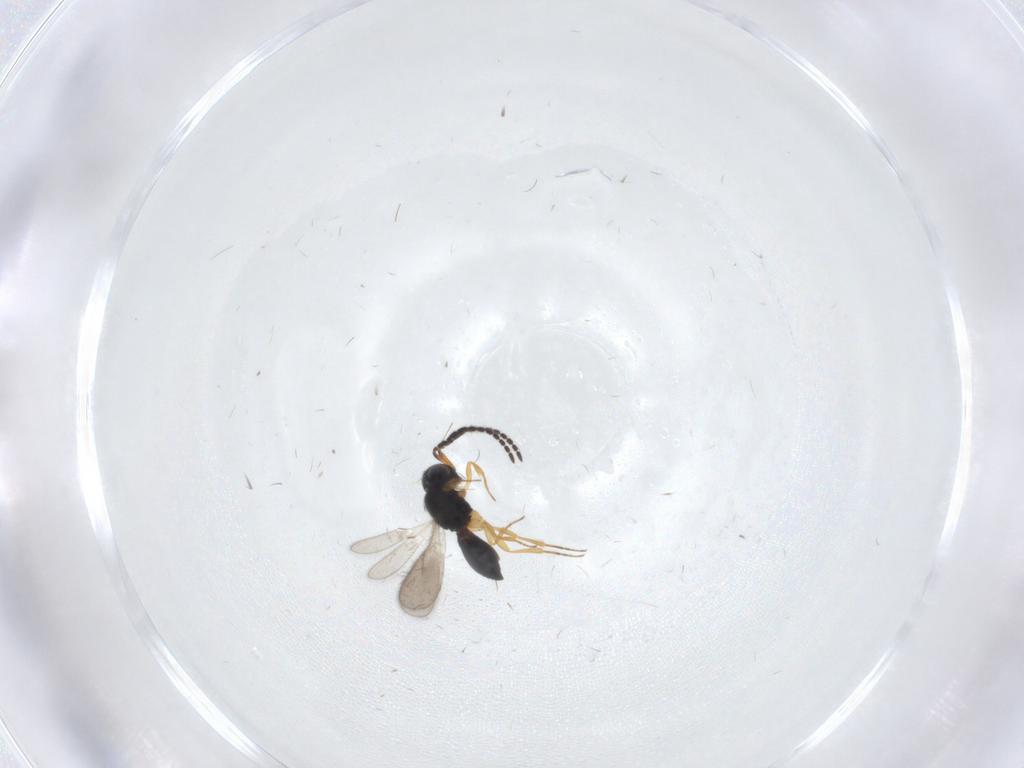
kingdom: Animalia
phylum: Arthropoda
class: Insecta
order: Hymenoptera
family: Scelionidae
